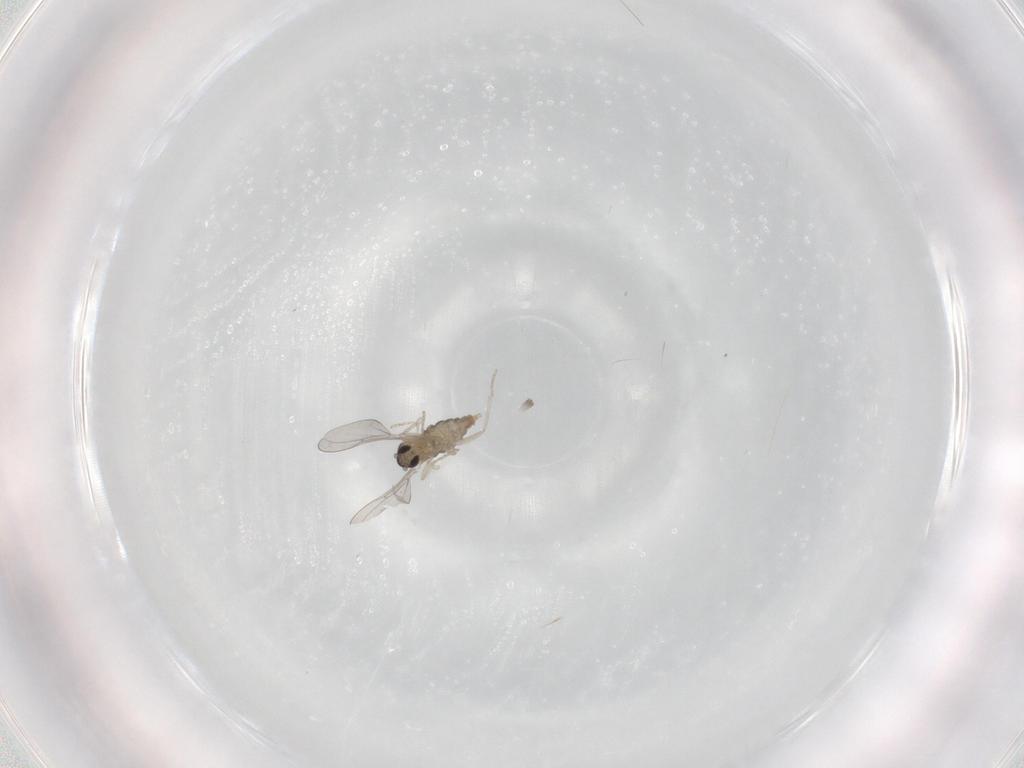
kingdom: Animalia
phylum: Arthropoda
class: Insecta
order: Diptera
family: Cecidomyiidae
